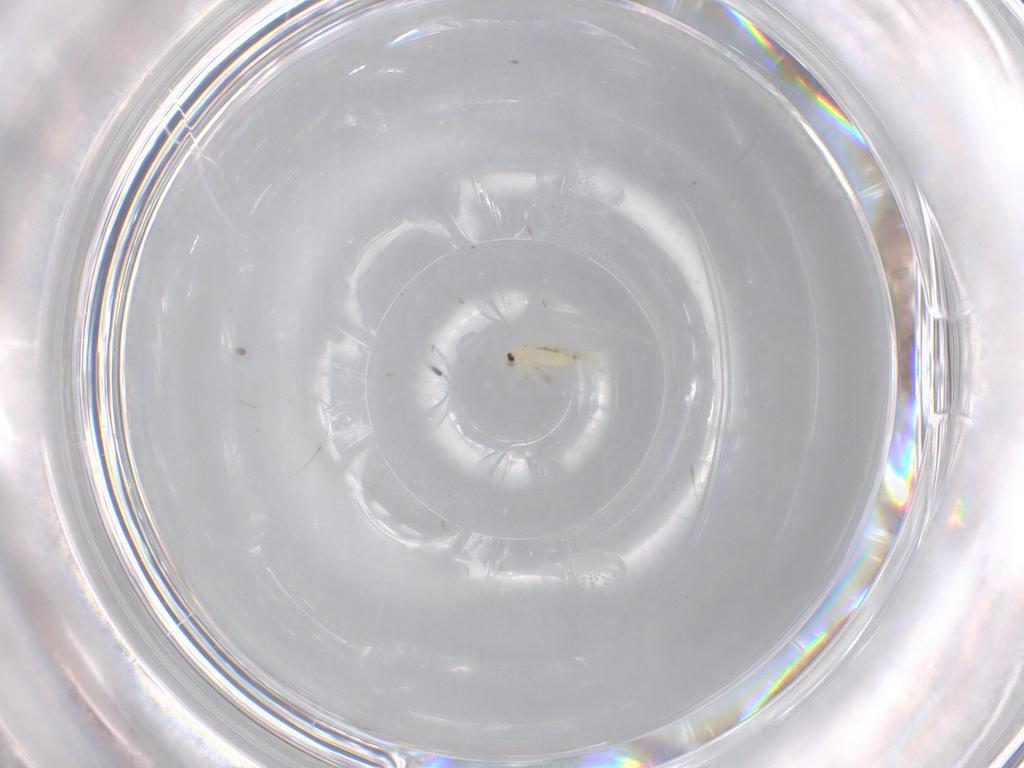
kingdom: Animalia
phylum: Arthropoda
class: Insecta
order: Hemiptera
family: Aleyrodidae
